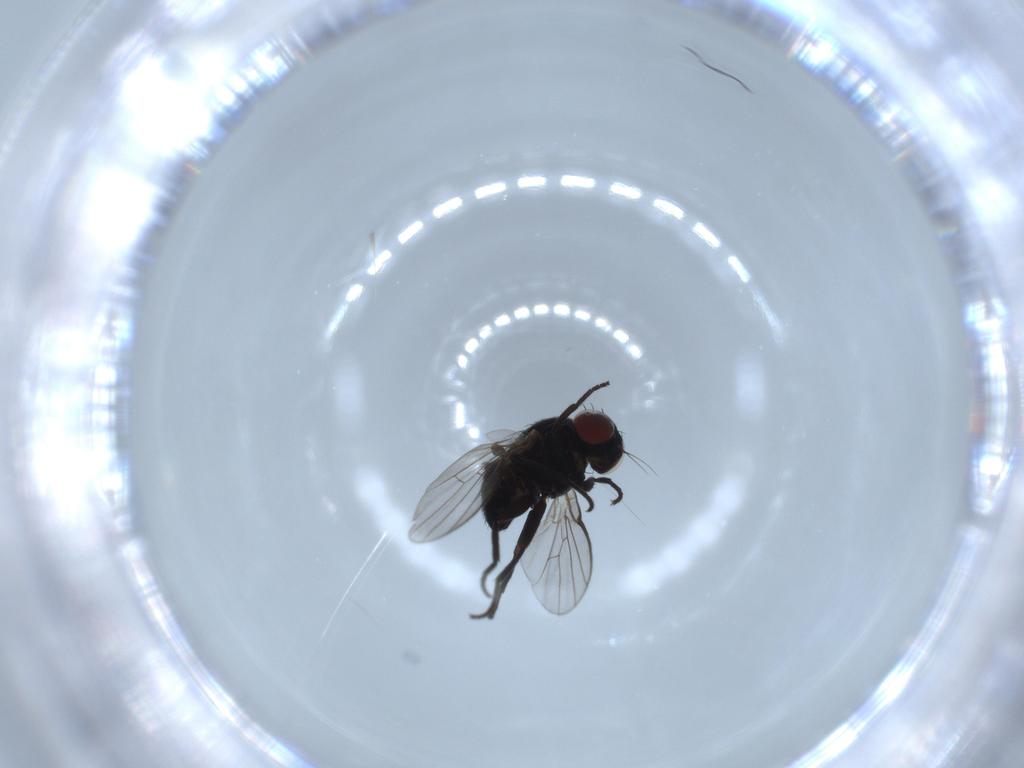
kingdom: Animalia
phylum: Arthropoda
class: Insecta
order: Diptera
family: Agromyzidae
